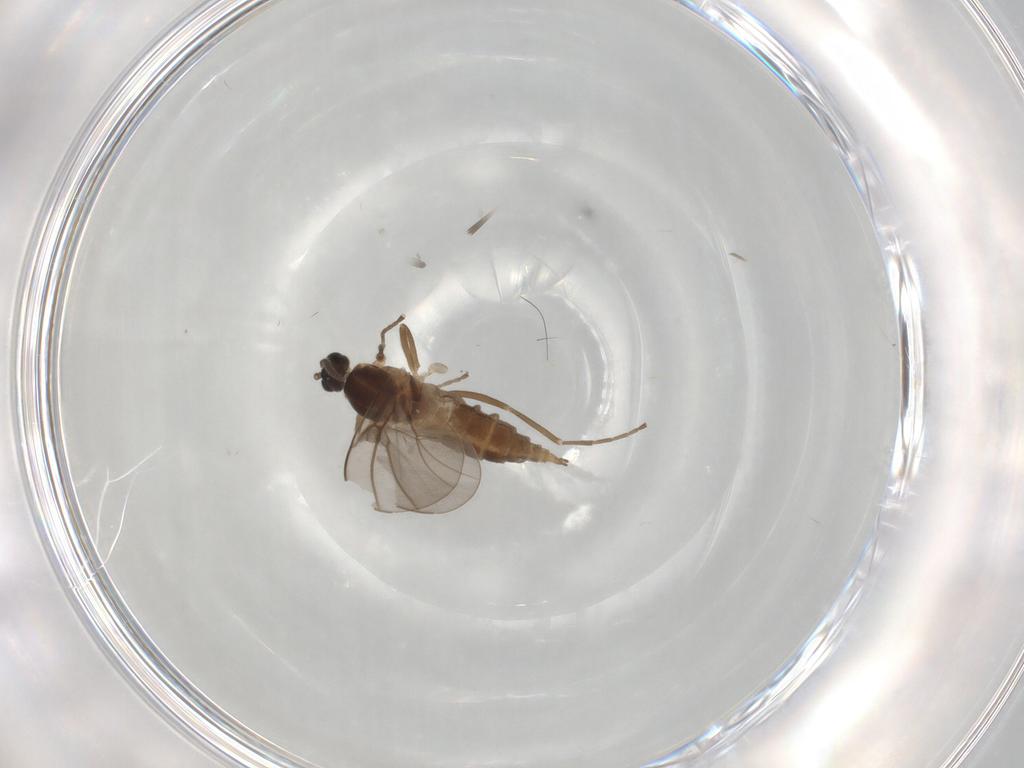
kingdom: Animalia
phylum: Arthropoda
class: Insecta
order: Diptera
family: Cecidomyiidae
